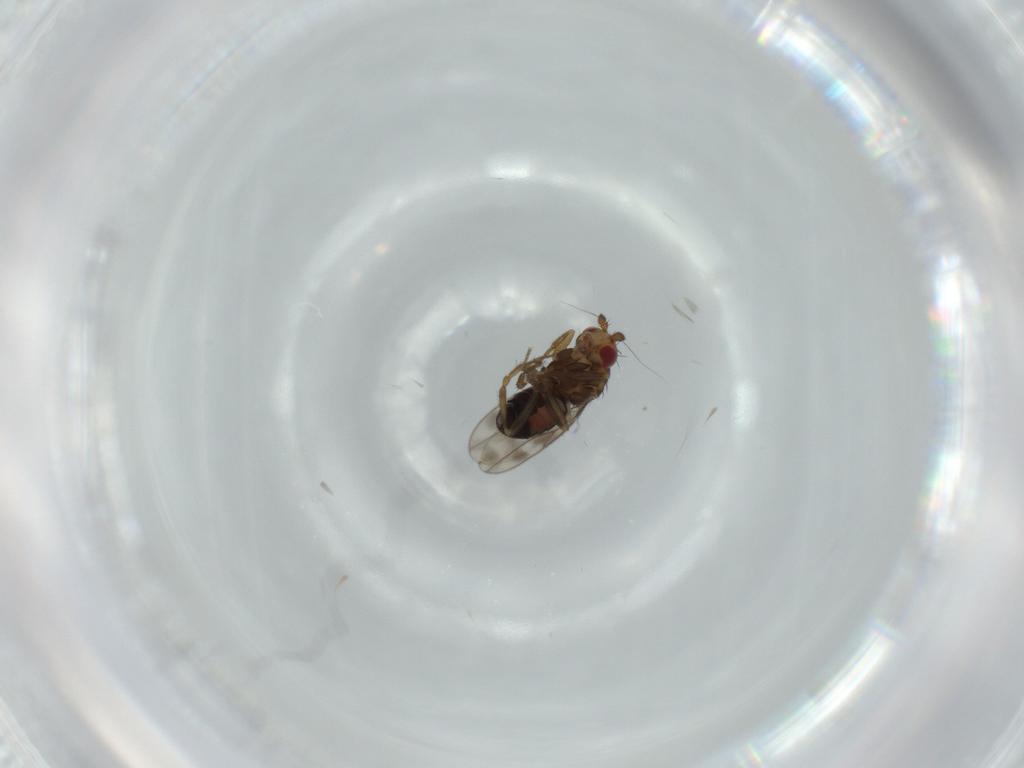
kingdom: Animalia
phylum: Arthropoda
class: Insecta
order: Diptera
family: Sphaeroceridae
